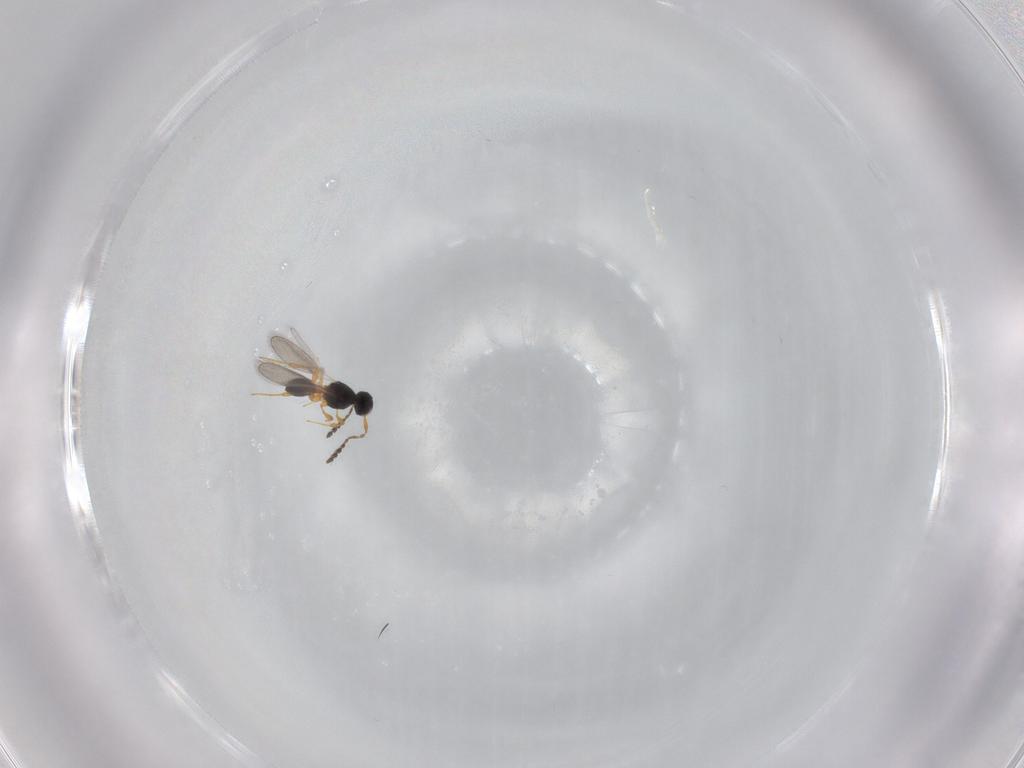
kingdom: Animalia
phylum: Arthropoda
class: Insecta
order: Hymenoptera
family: Platygastridae
